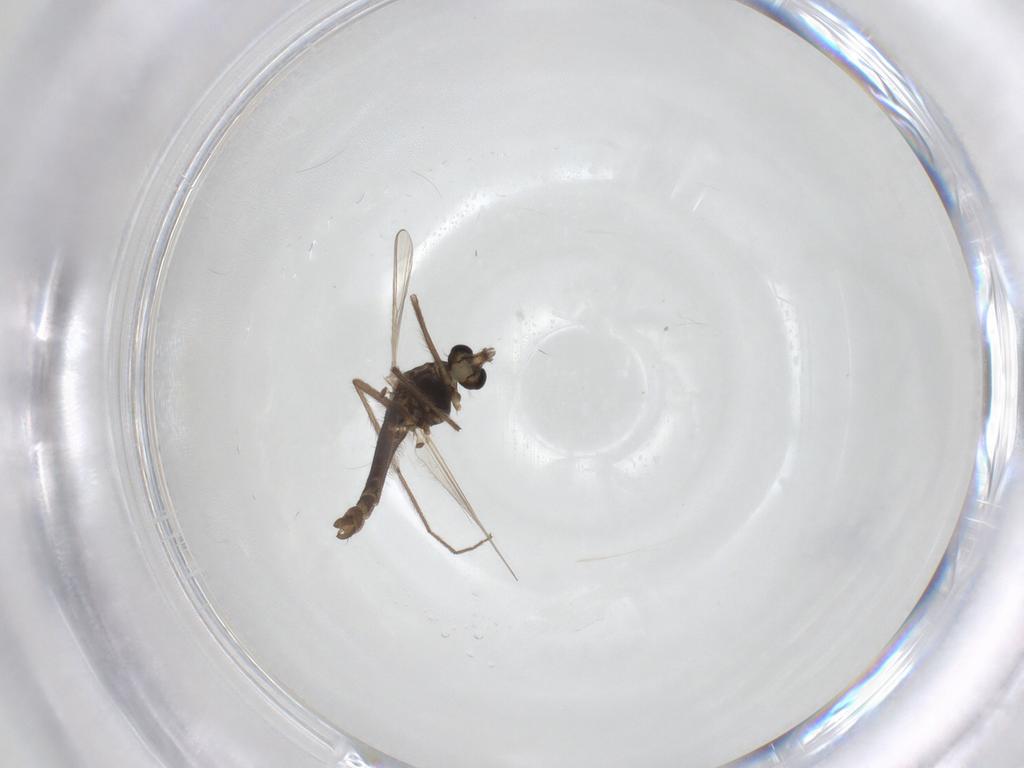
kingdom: Animalia
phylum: Arthropoda
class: Insecta
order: Diptera
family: Chironomidae
